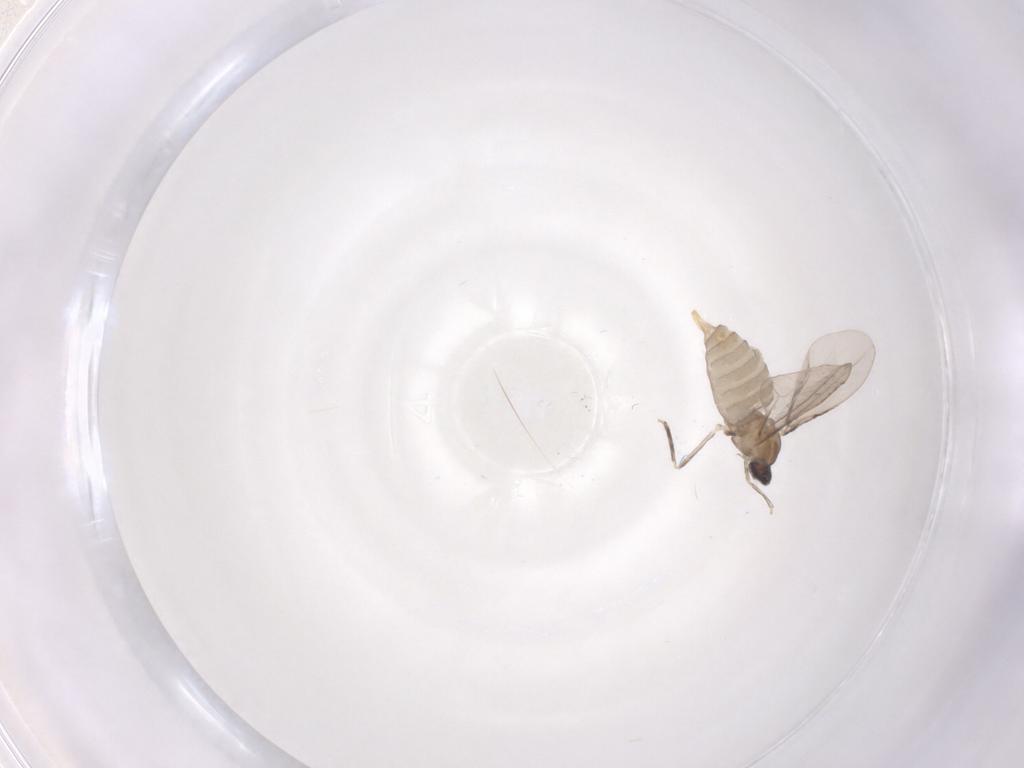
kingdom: Animalia
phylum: Arthropoda
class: Insecta
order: Diptera
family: Cecidomyiidae
